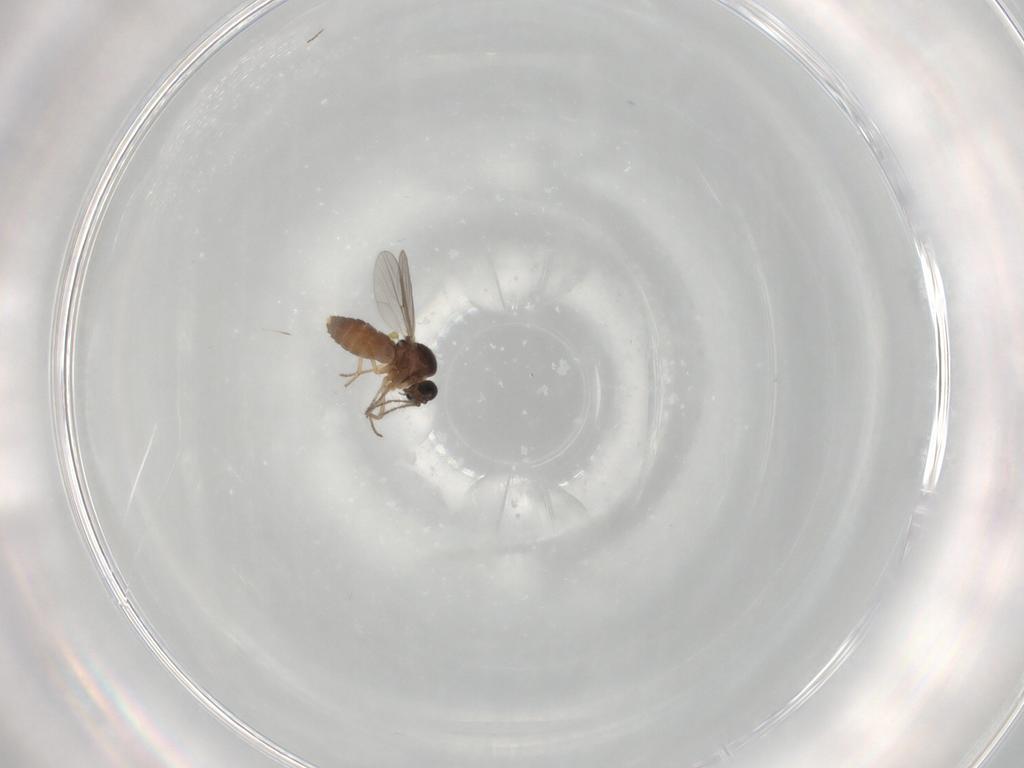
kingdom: Animalia
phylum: Arthropoda
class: Insecta
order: Diptera
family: Ceratopogonidae
